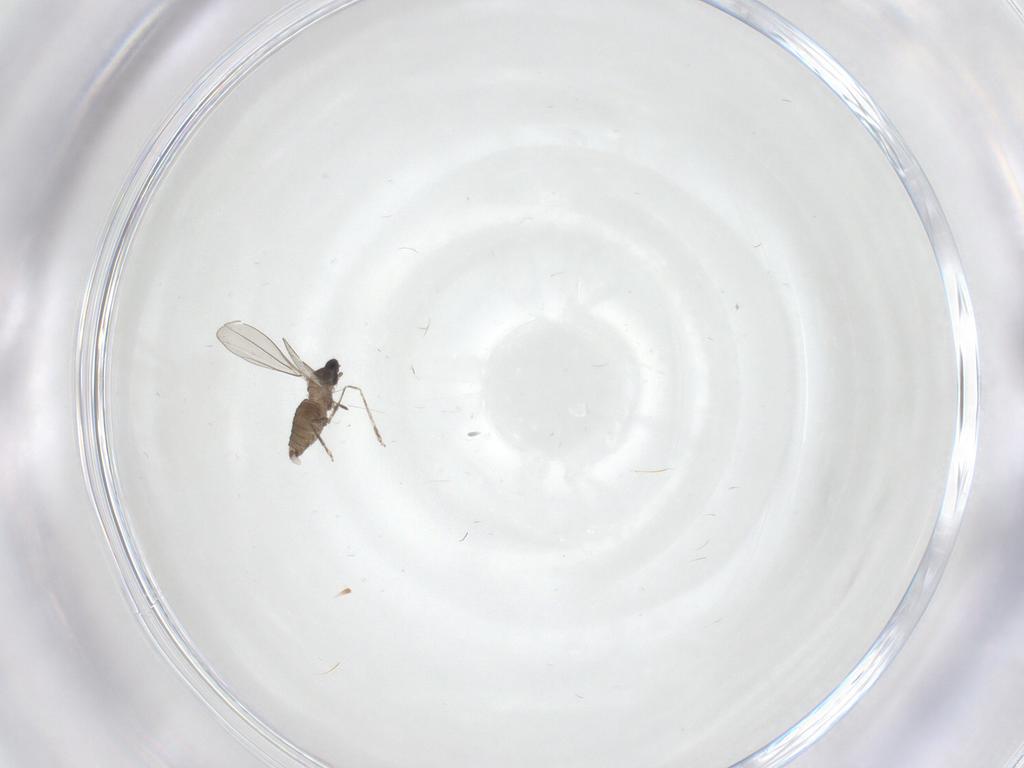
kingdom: Animalia
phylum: Arthropoda
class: Insecta
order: Diptera
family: Cecidomyiidae
